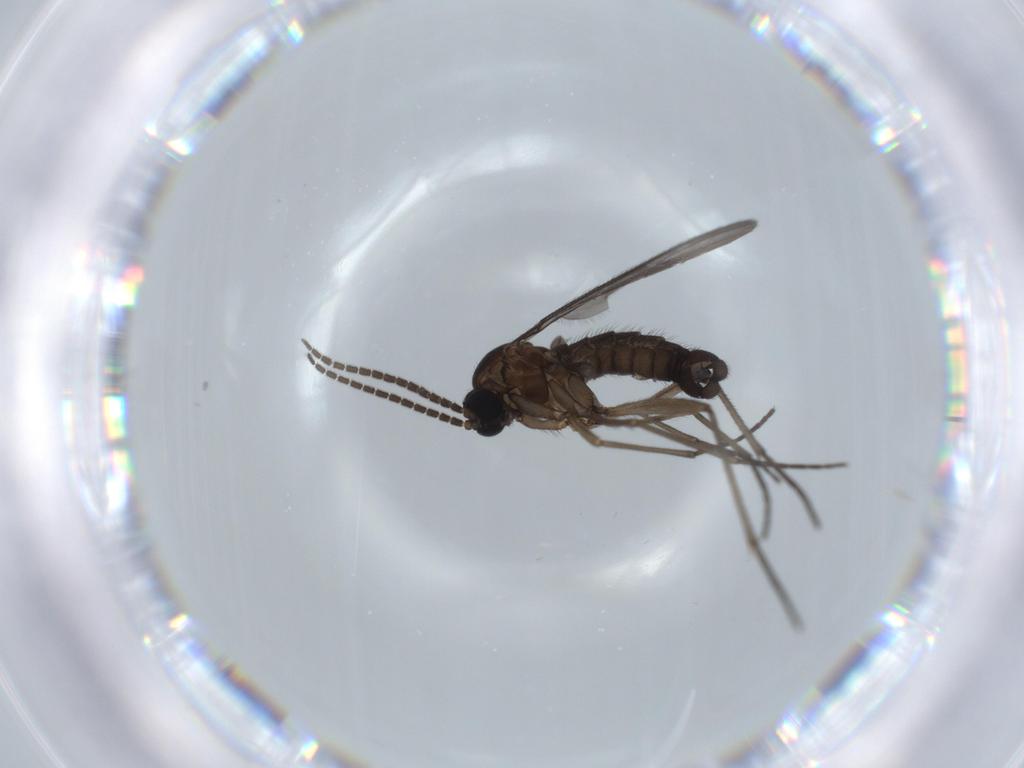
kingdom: Animalia
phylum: Arthropoda
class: Insecta
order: Diptera
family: Sciaridae
